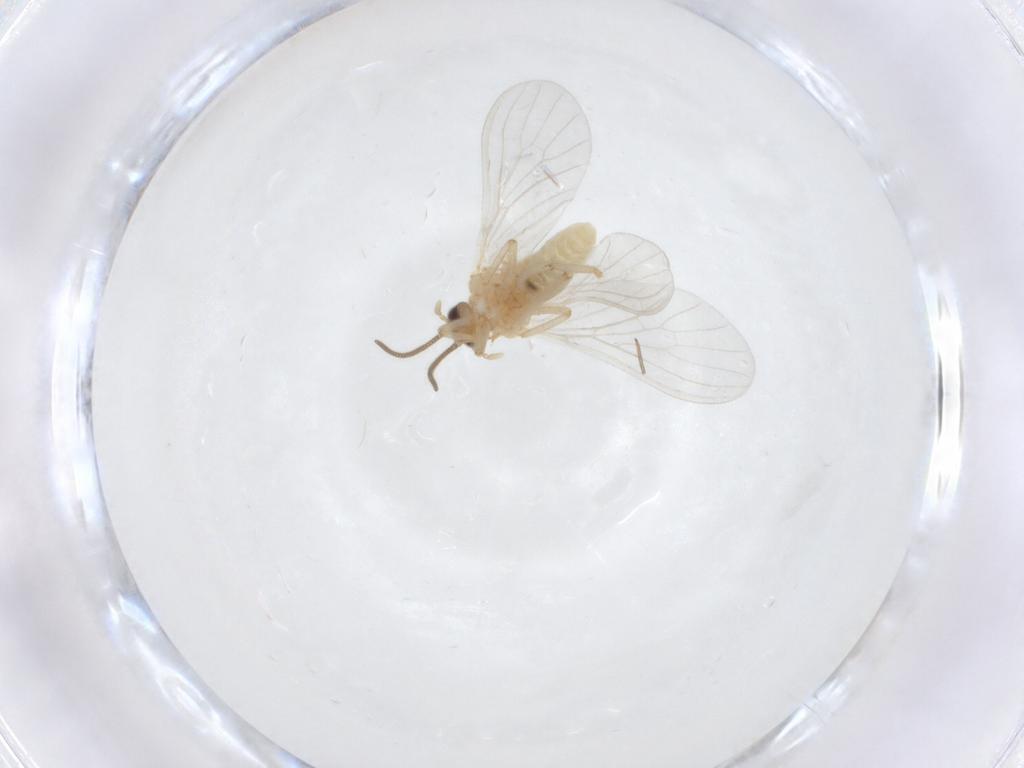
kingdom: Animalia
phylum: Arthropoda
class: Insecta
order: Neuroptera
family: Coniopterygidae
